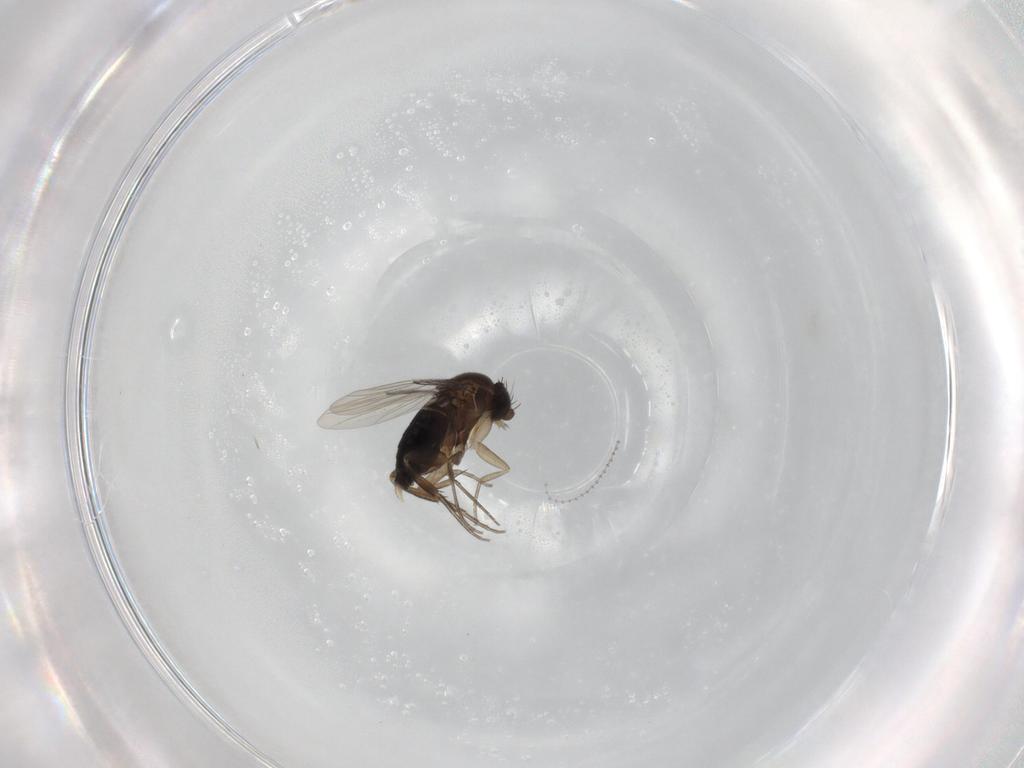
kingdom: Animalia
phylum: Arthropoda
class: Insecta
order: Diptera
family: Phoridae
